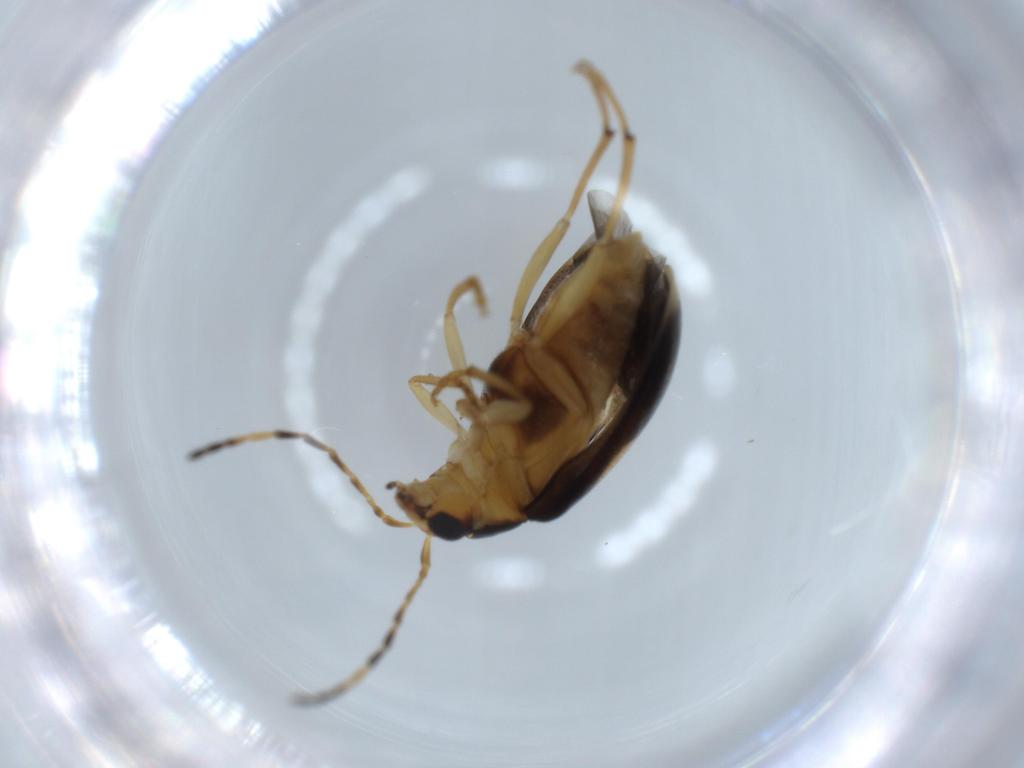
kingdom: Animalia
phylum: Arthropoda
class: Insecta
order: Coleoptera
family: Chrysomelidae
